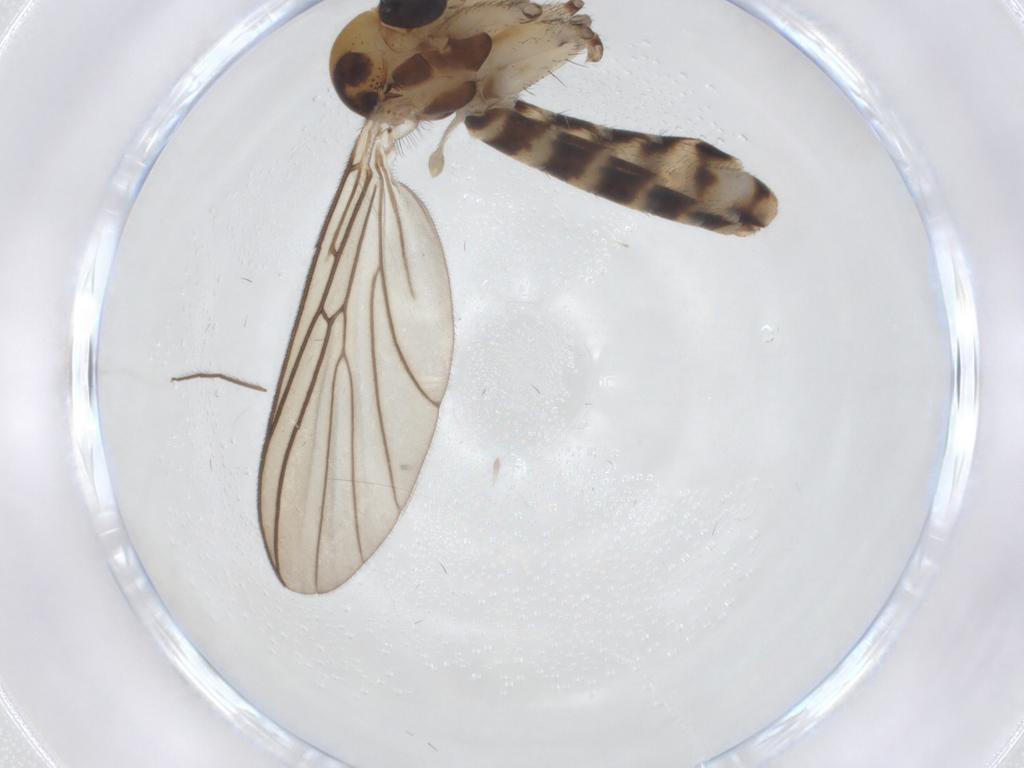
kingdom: Animalia
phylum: Arthropoda
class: Insecta
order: Diptera
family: Mycetophilidae
